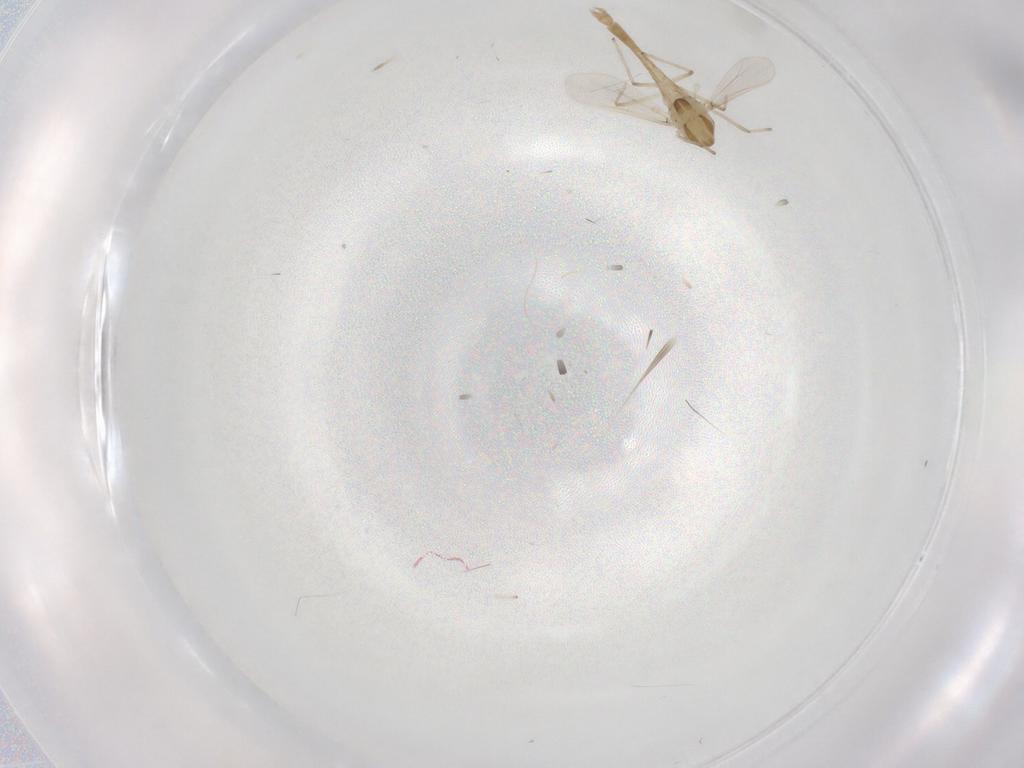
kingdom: Animalia
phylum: Arthropoda
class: Insecta
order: Diptera
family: Chironomidae
